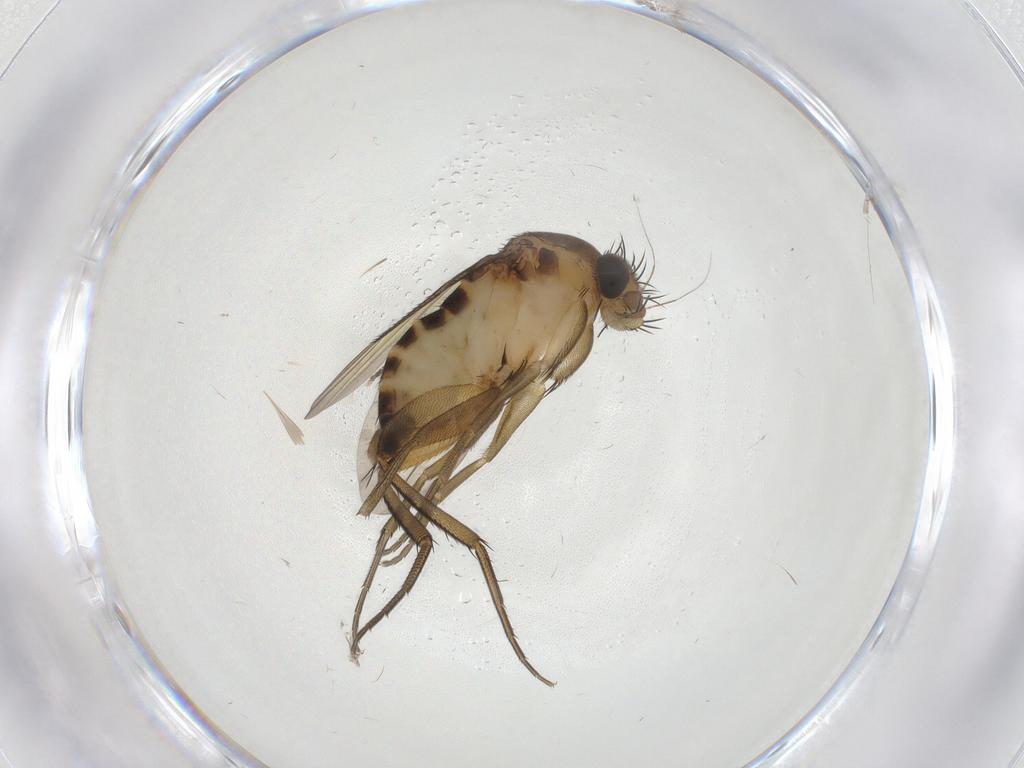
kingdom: Animalia
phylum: Arthropoda
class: Insecta
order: Diptera
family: Phoridae
